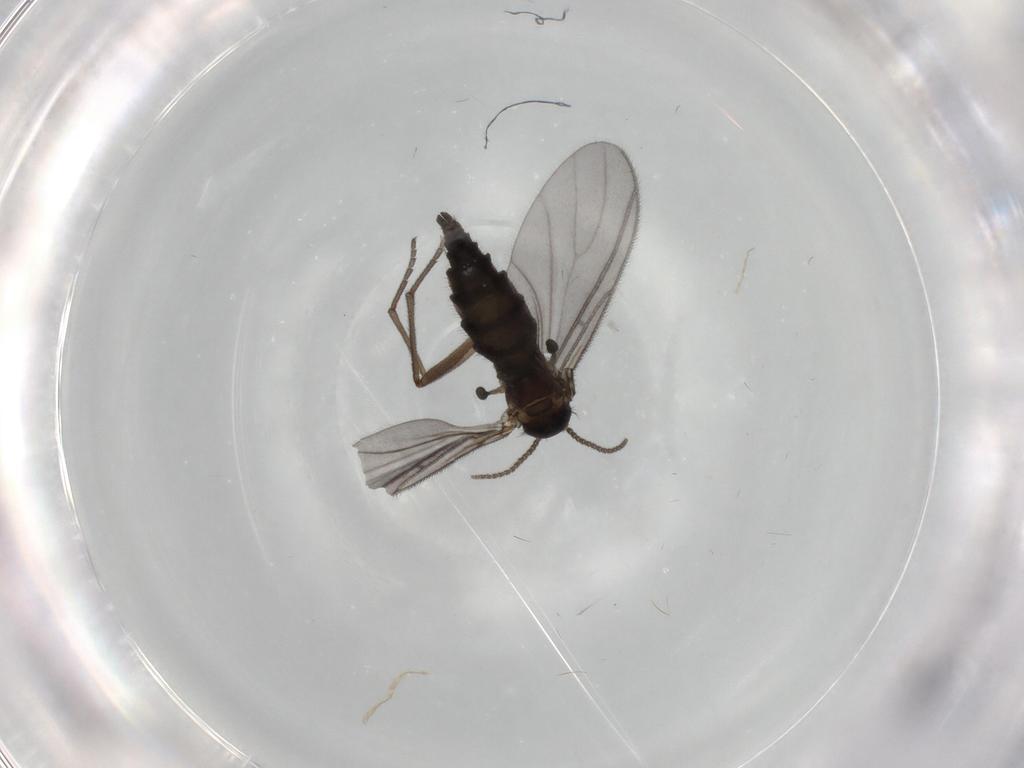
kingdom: Animalia
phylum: Arthropoda
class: Insecta
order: Diptera
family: Sciaridae
